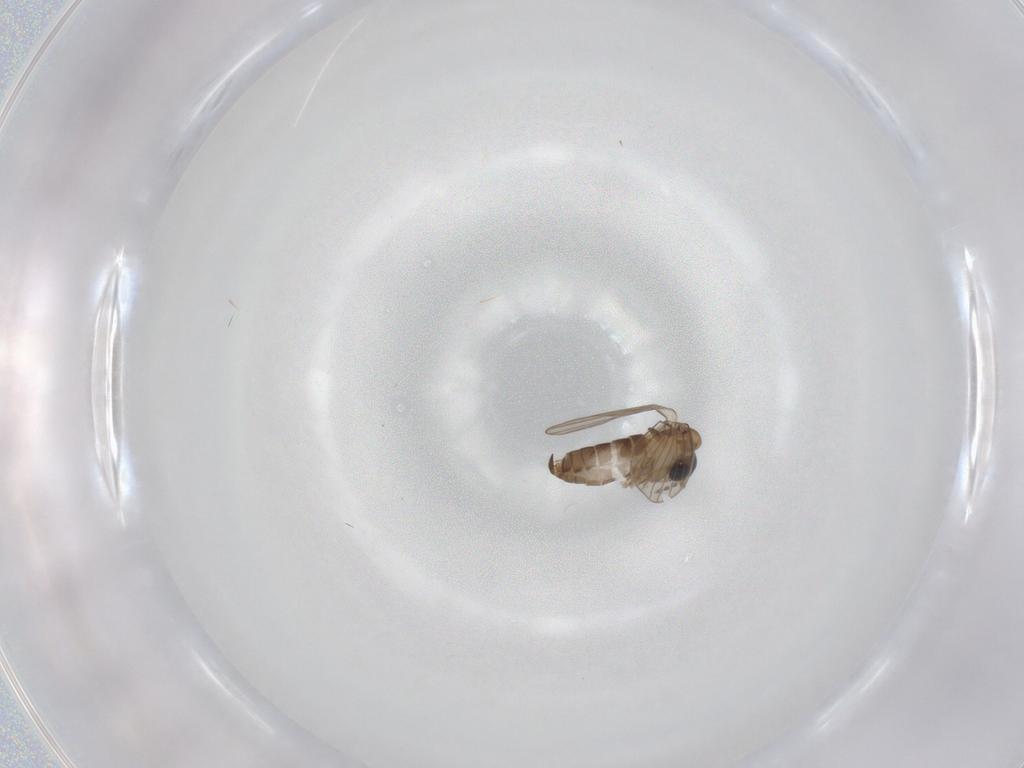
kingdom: Animalia
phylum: Arthropoda
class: Insecta
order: Diptera
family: Psychodidae
